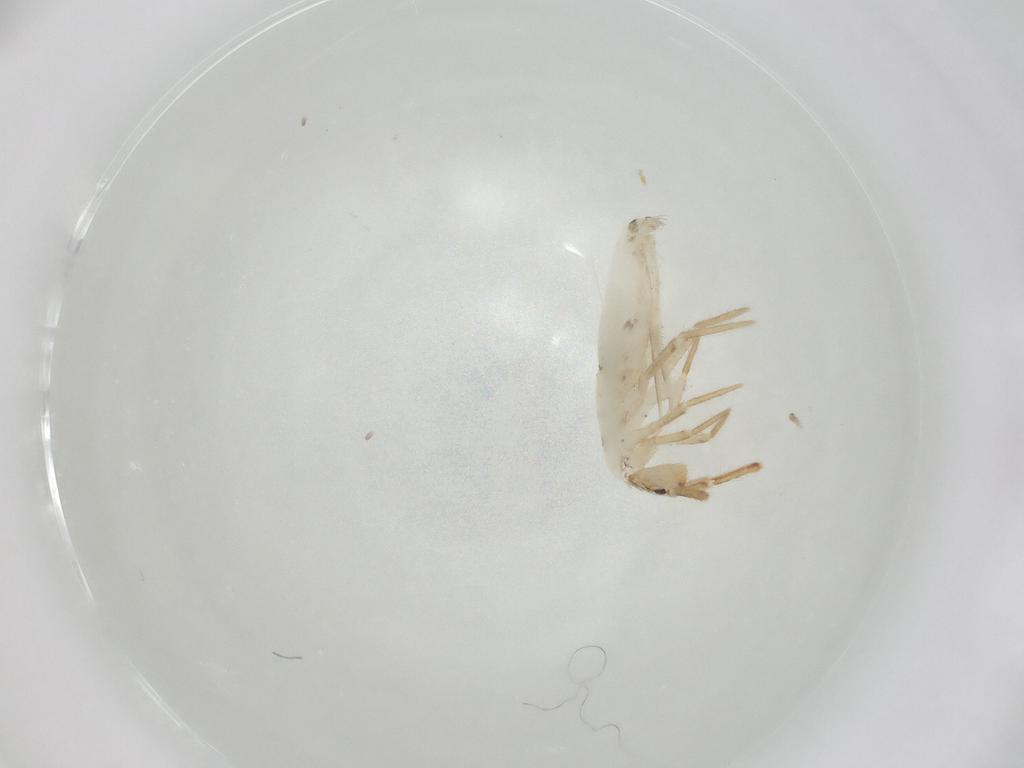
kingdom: Animalia
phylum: Arthropoda
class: Collembola
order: Entomobryomorpha
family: Entomobryidae
